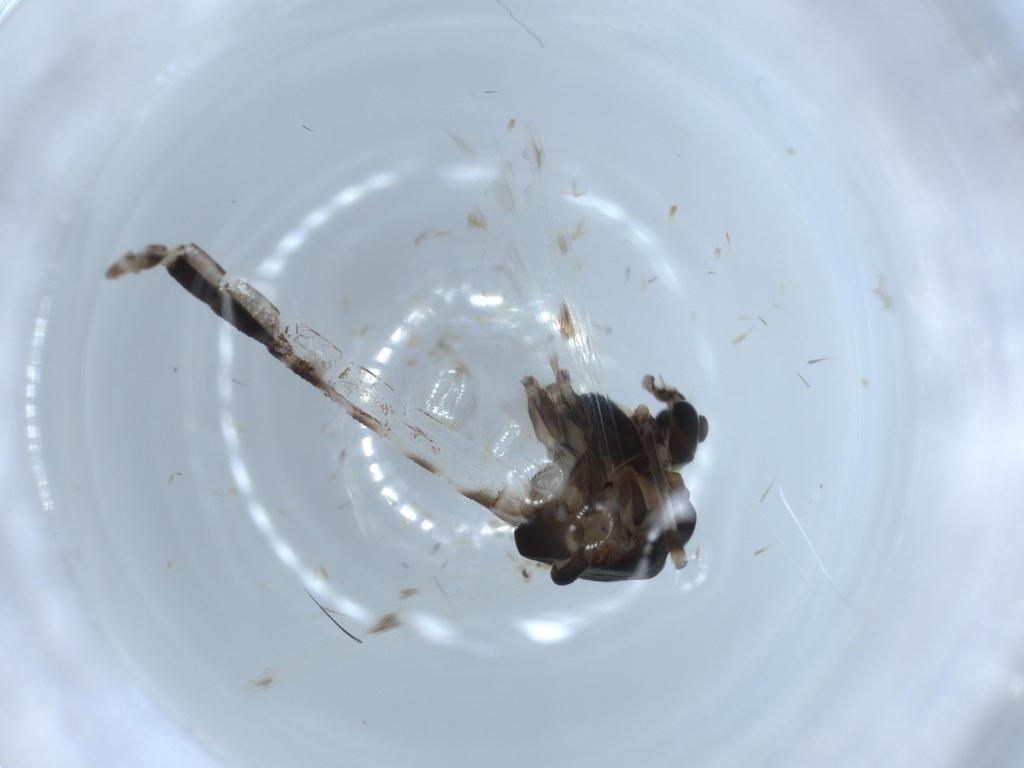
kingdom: Animalia
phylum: Arthropoda
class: Insecta
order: Diptera
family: Chironomidae
